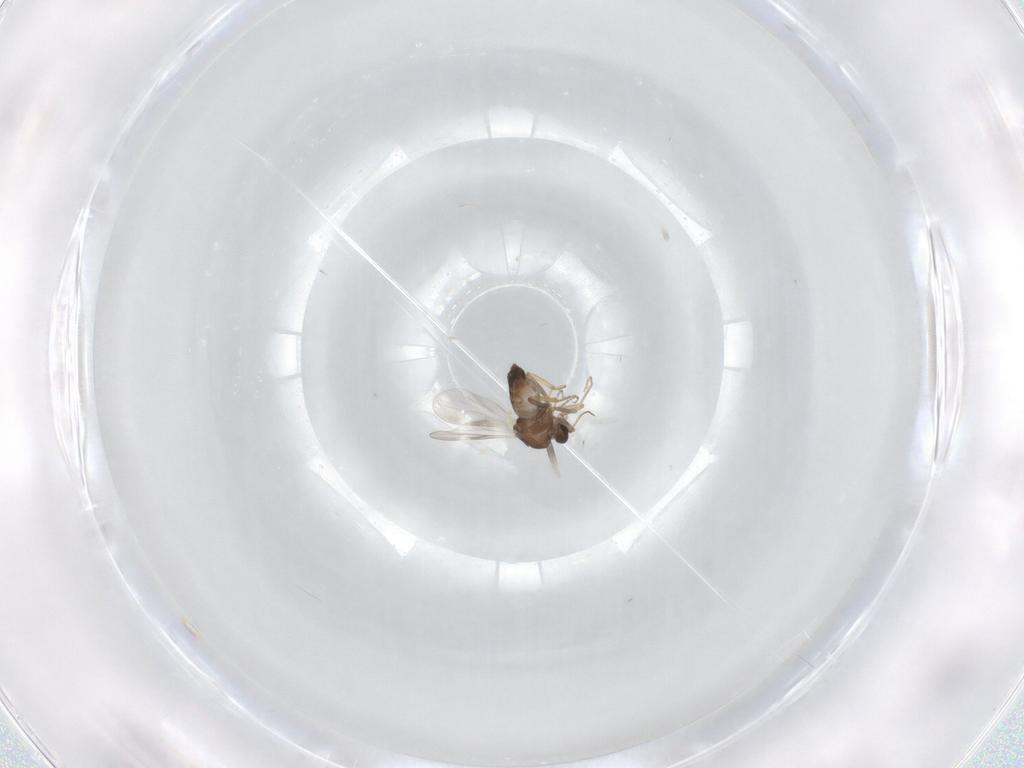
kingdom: Animalia
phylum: Arthropoda
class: Insecta
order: Diptera
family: Ceratopogonidae
